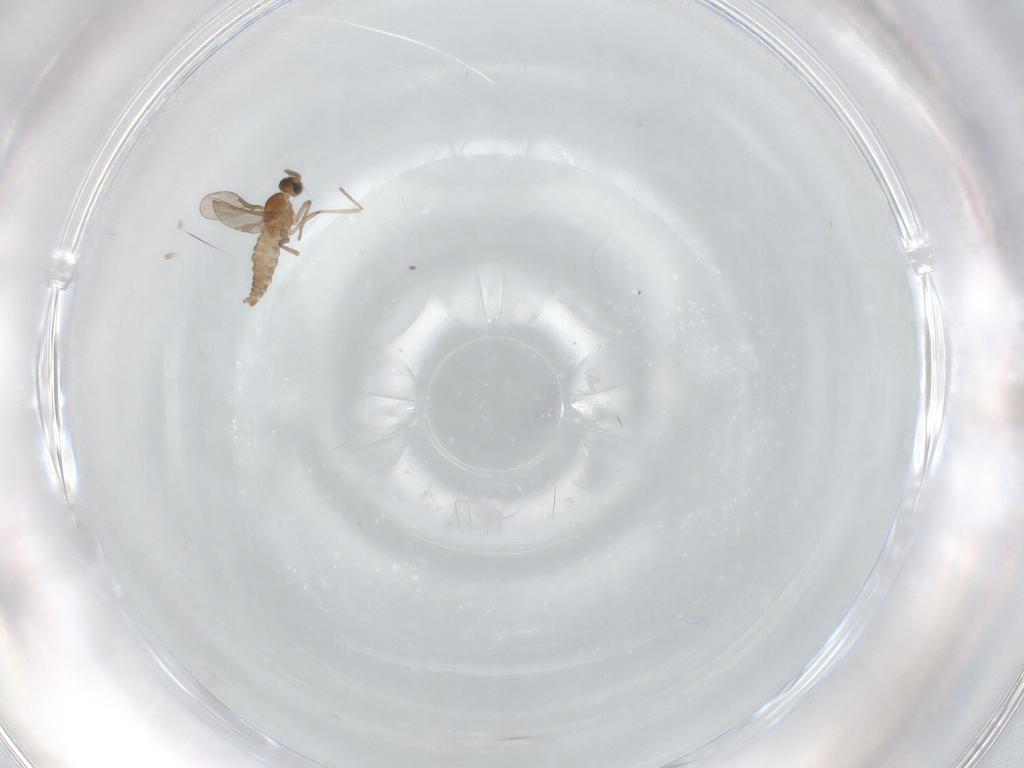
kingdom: Animalia
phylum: Arthropoda
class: Insecta
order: Diptera
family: Cecidomyiidae
